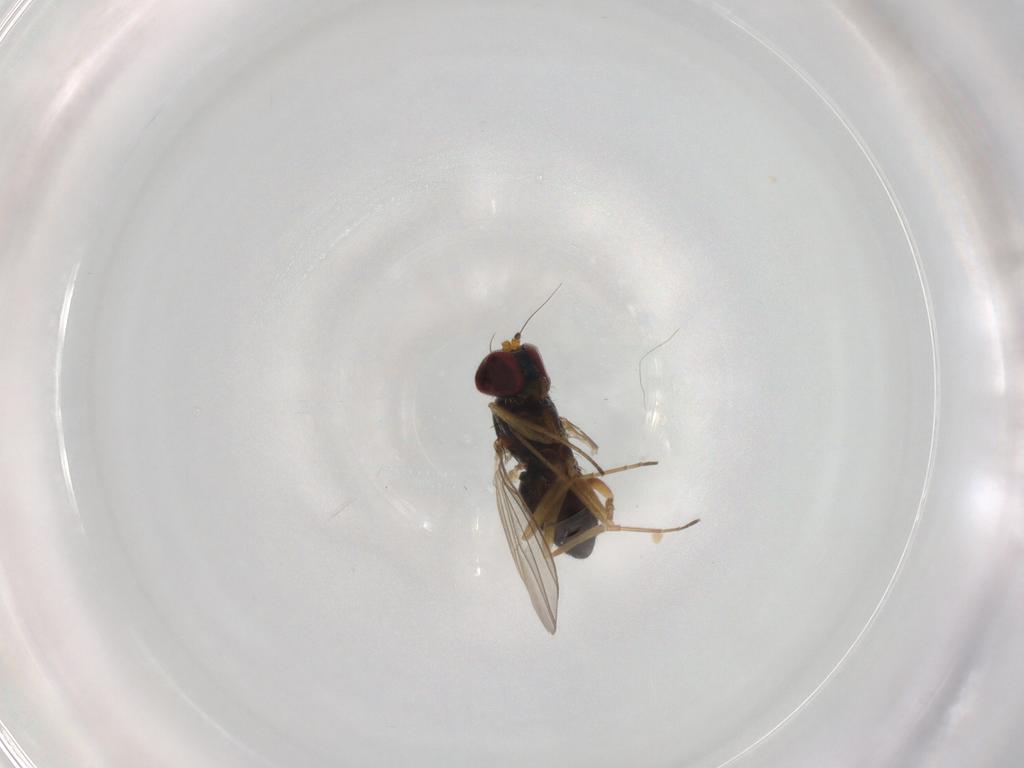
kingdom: Animalia
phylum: Arthropoda
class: Insecta
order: Diptera
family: Dolichopodidae
